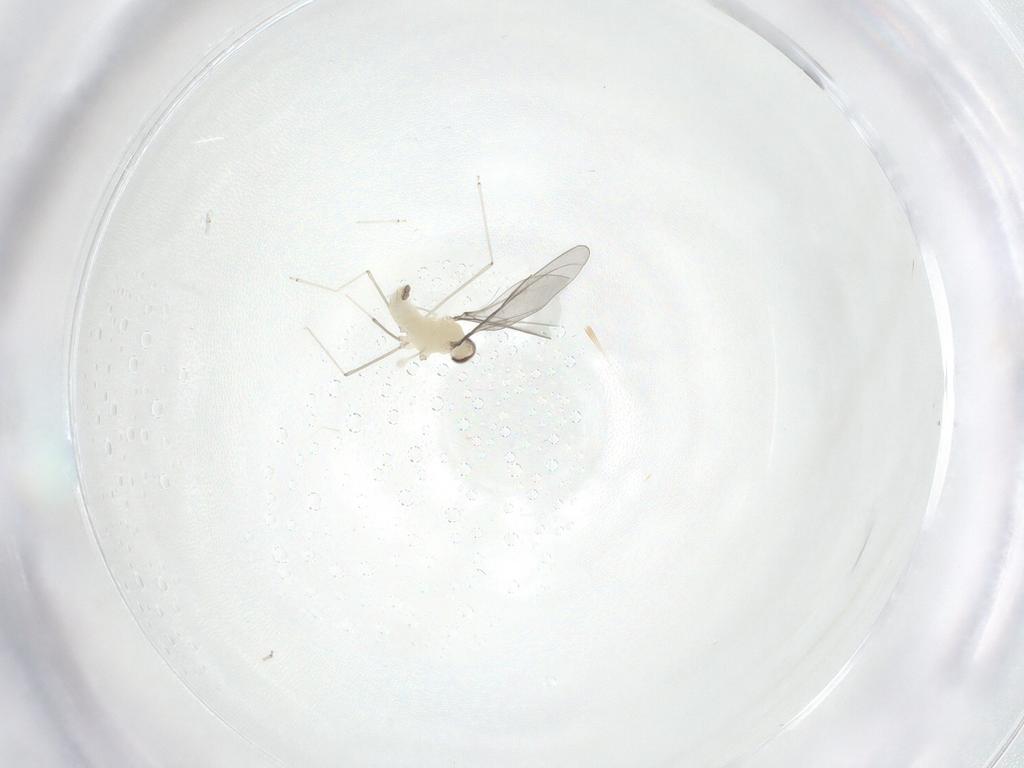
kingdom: Animalia
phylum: Arthropoda
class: Insecta
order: Diptera
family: Cecidomyiidae
